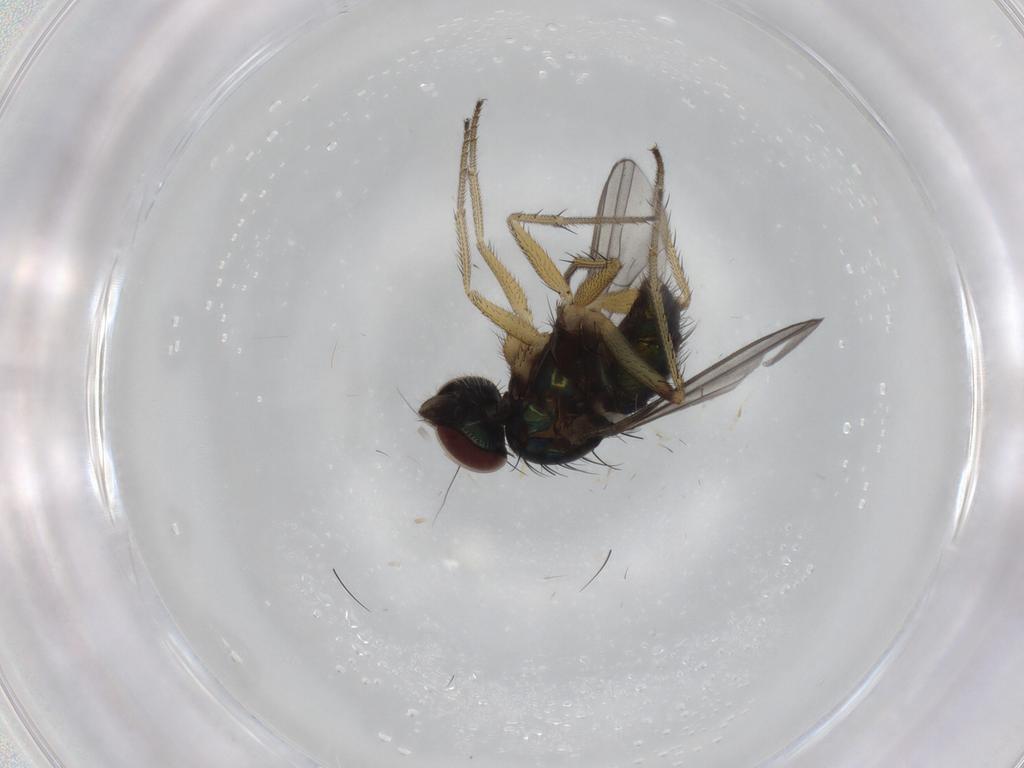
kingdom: Animalia
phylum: Arthropoda
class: Insecta
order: Diptera
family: Dolichopodidae
